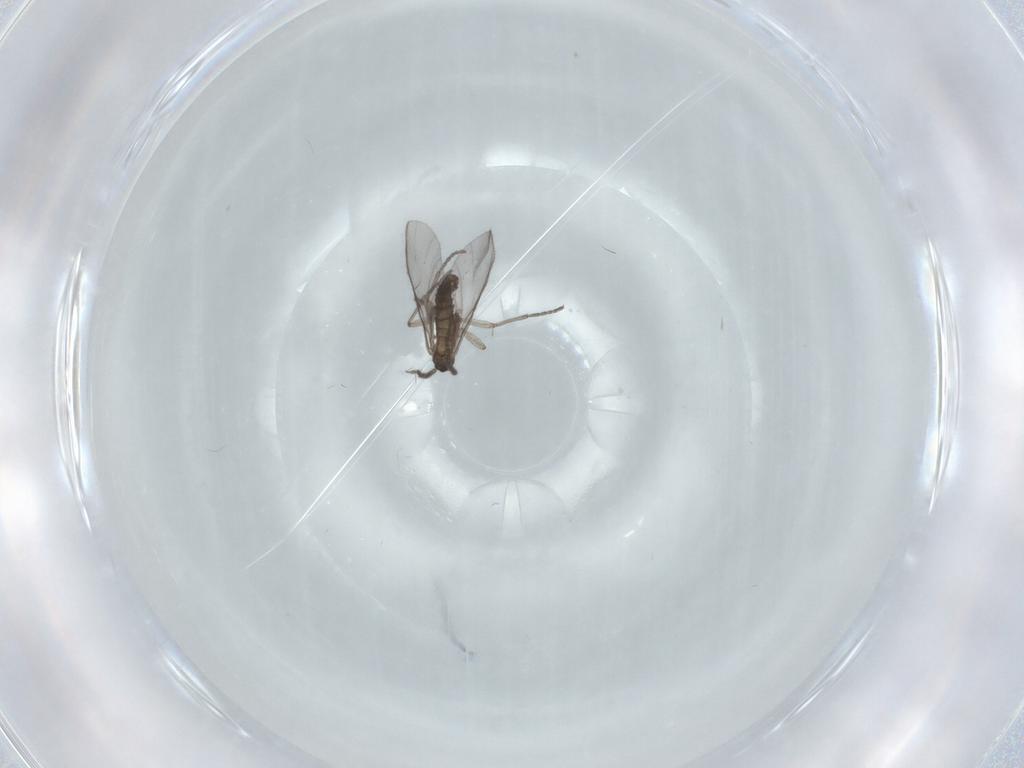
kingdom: Animalia
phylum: Arthropoda
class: Insecta
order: Diptera
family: Sciaridae
